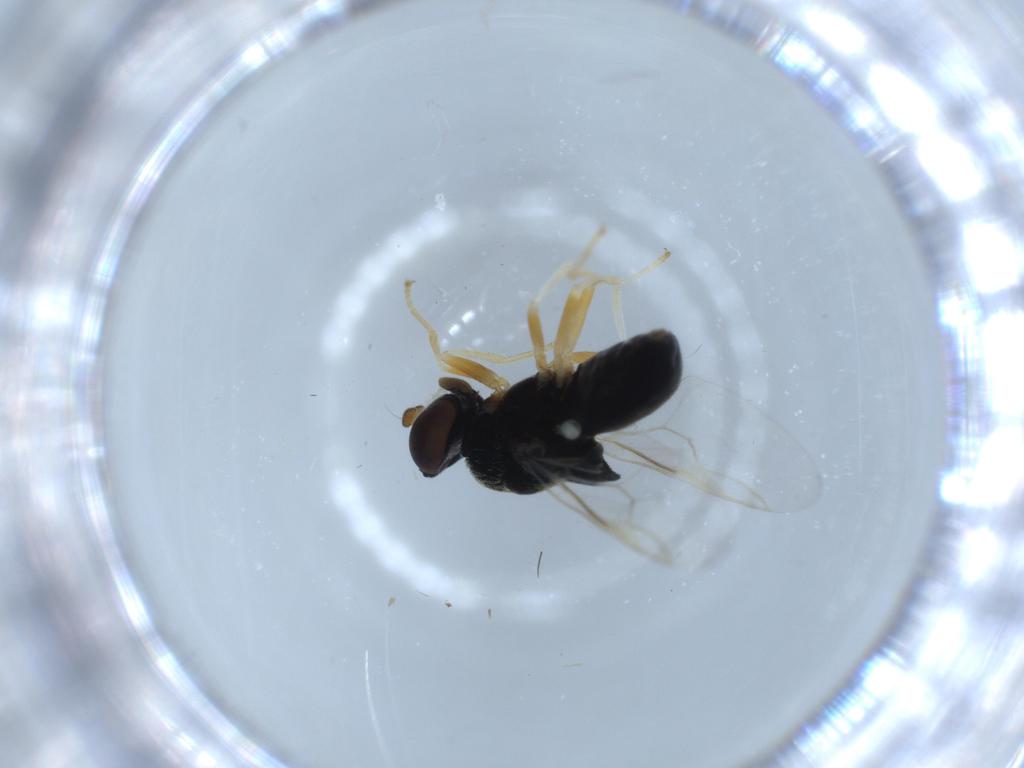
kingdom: Animalia
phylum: Arthropoda
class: Insecta
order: Diptera
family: Stratiomyidae
